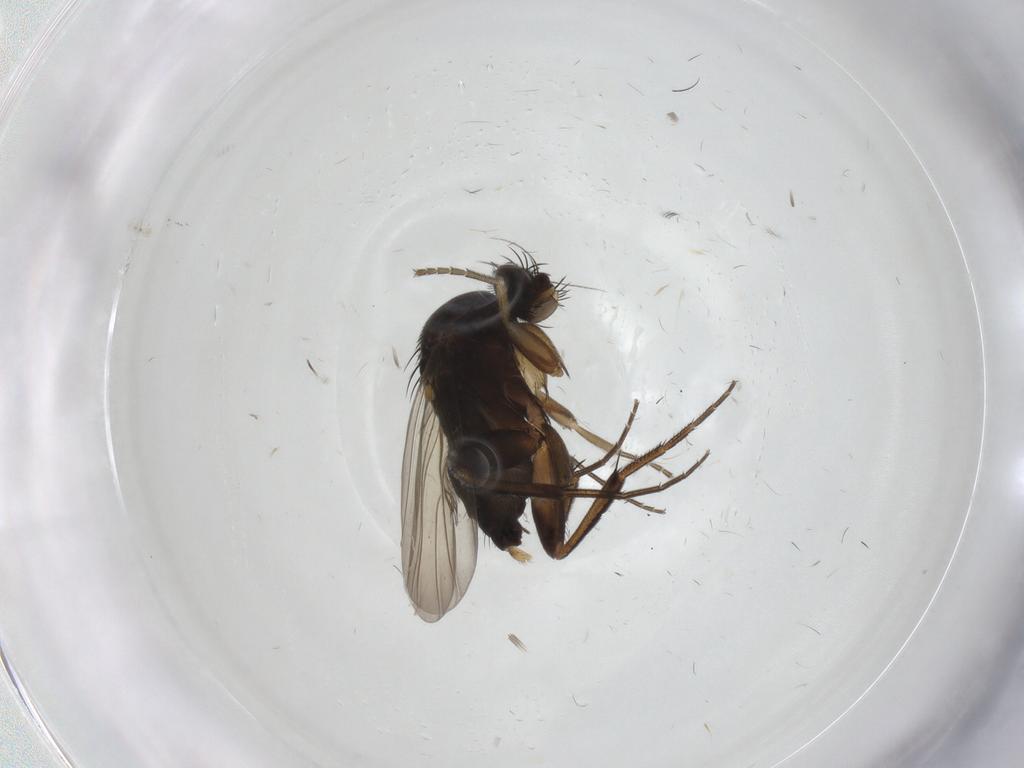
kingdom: Animalia
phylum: Arthropoda
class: Insecta
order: Diptera
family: Phoridae
